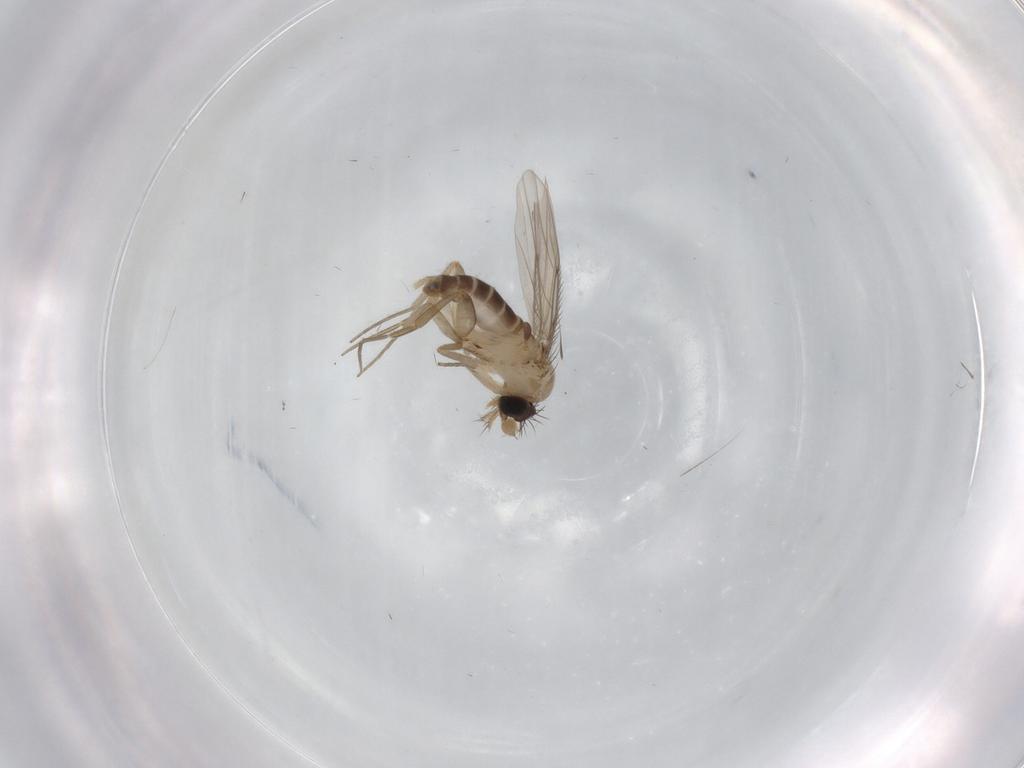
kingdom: Animalia
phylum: Arthropoda
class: Insecta
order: Diptera
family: Psychodidae
